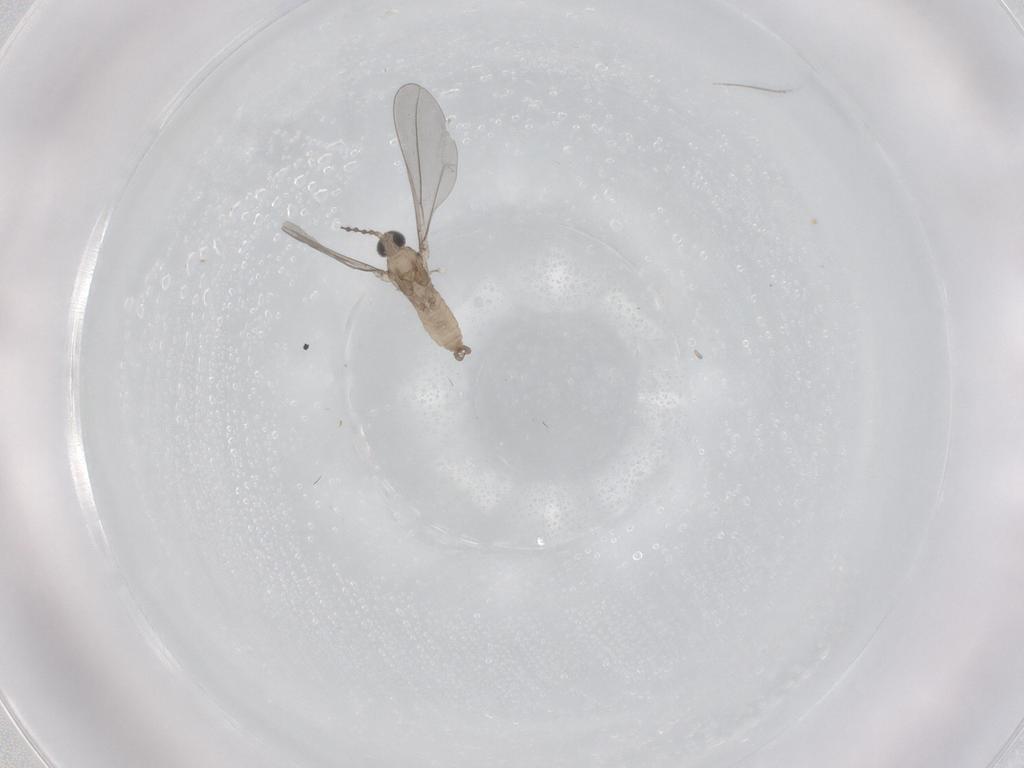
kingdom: Animalia
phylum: Arthropoda
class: Insecta
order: Diptera
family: Cecidomyiidae
